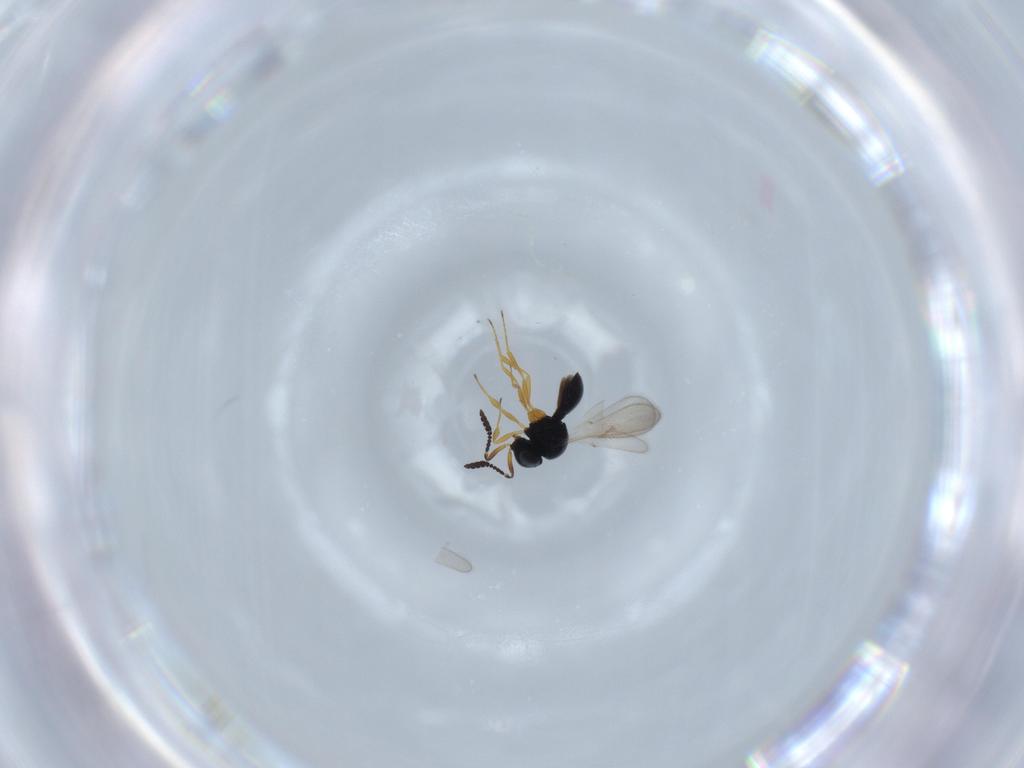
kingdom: Animalia
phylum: Arthropoda
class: Insecta
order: Hymenoptera
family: Scelionidae
